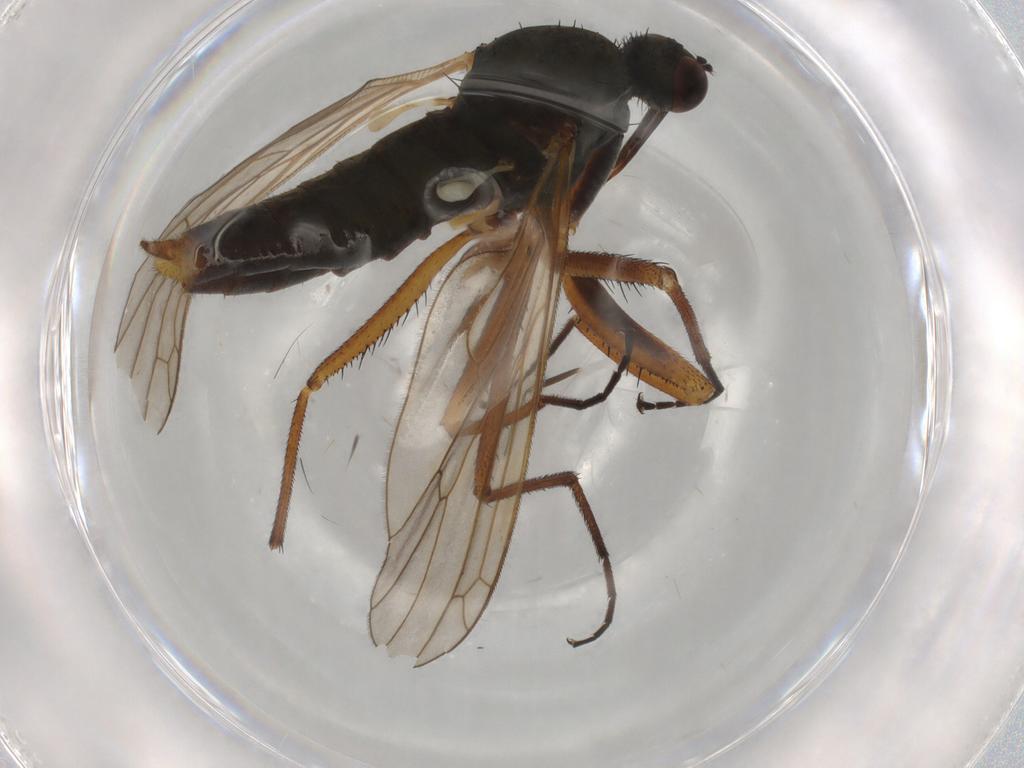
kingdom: Animalia
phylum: Arthropoda
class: Insecta
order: Diptera
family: Empididae
